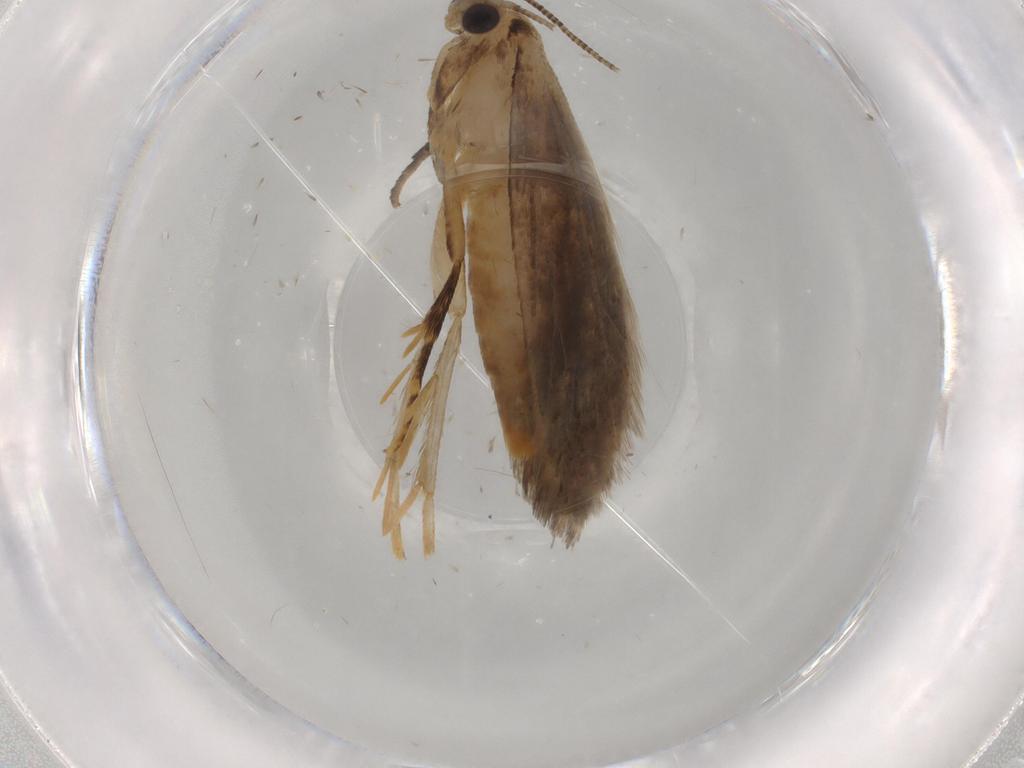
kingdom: Animalia
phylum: Arthropoda
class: Insecta
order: Lepidoptera
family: Tineidae
